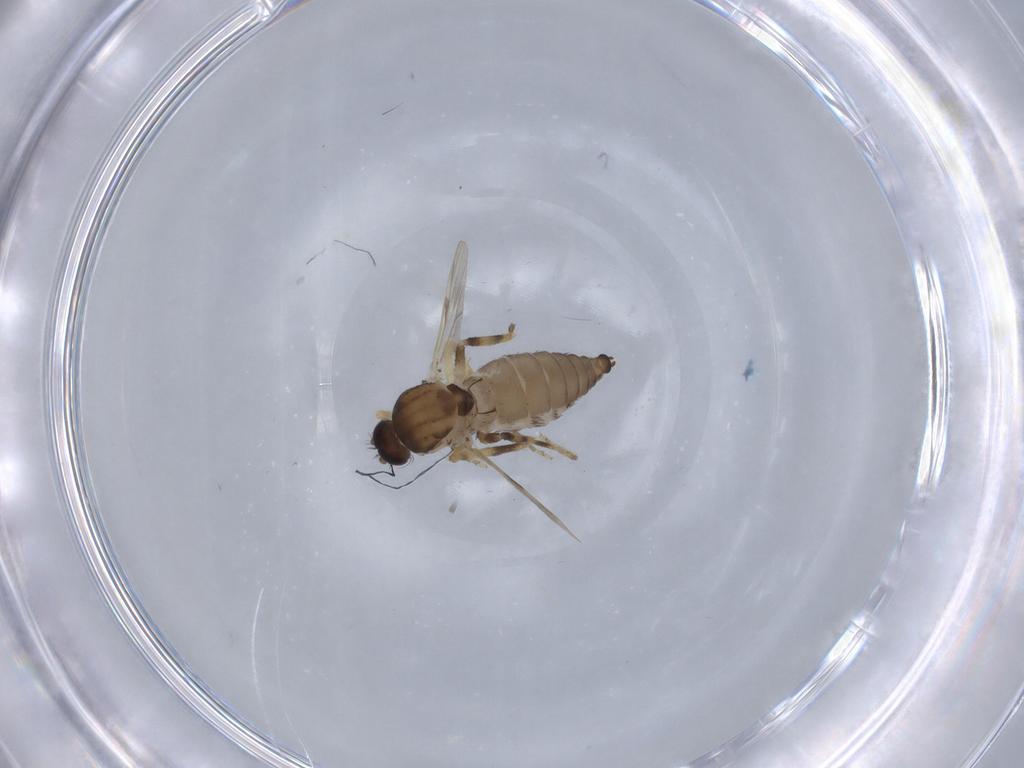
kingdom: Animalia
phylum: Arthropoda
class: Insecta
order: Diptera
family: Ceratopogonidae
